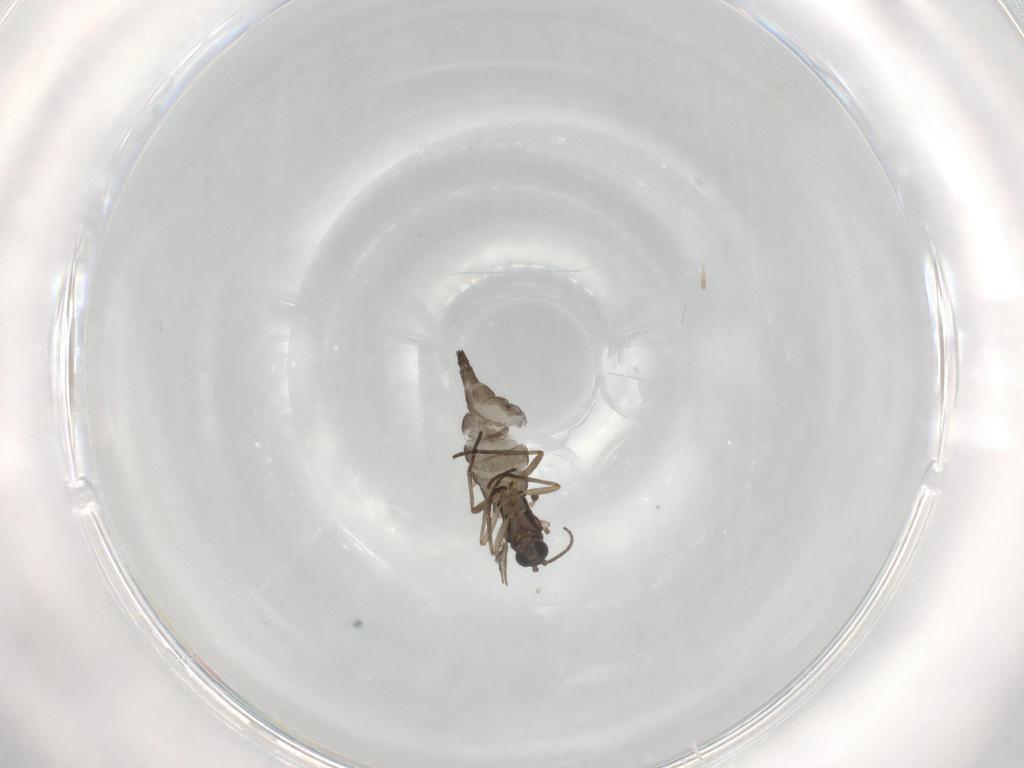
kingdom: Animalia
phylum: Arthropoda
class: Insecta
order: Diptera
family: Sciaridae
